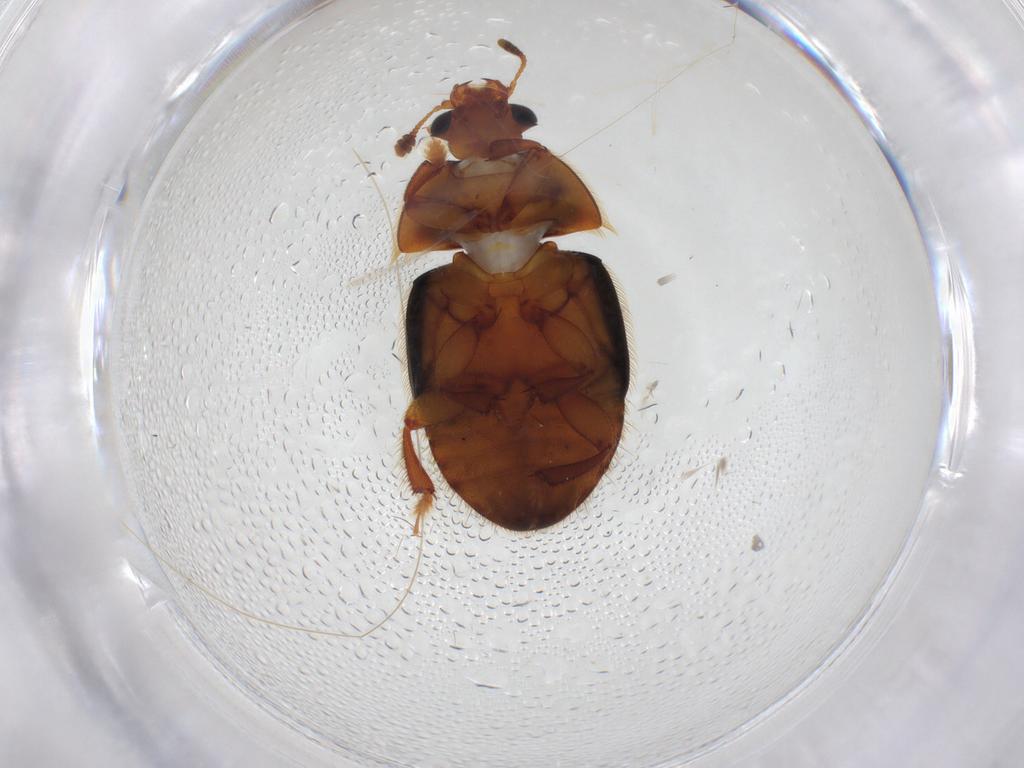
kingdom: Animalia
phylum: Arthropoda
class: Insecta
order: Coleoptera
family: Nitidulidae
